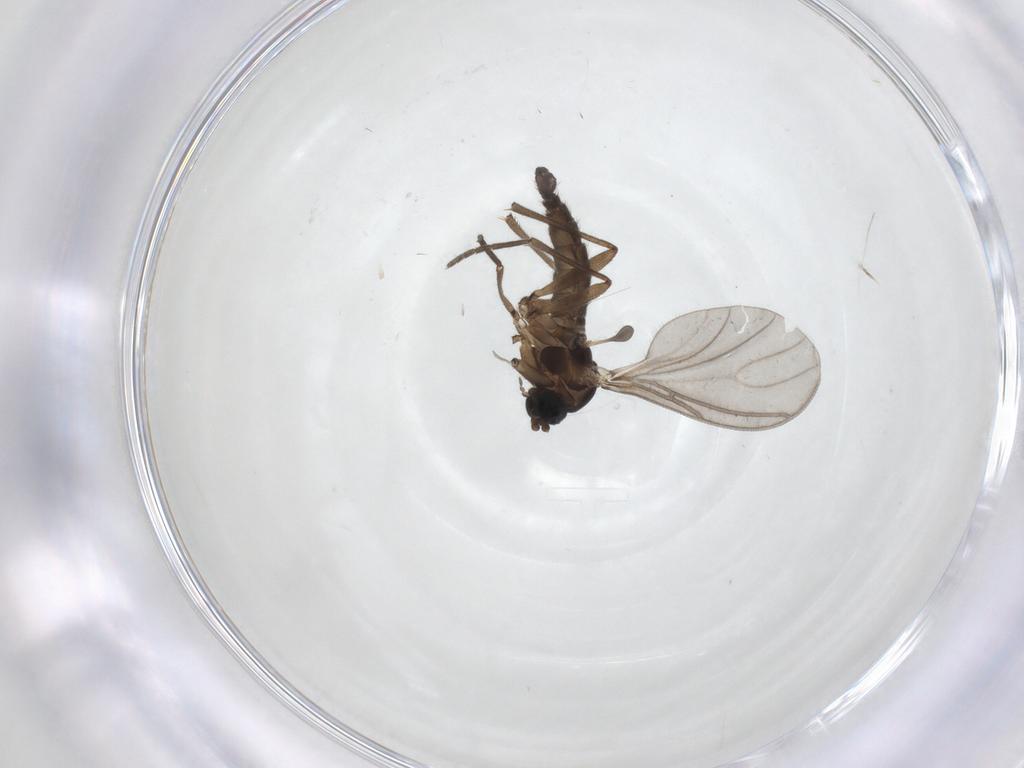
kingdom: Animalia
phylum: Arthropoda
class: Insecta
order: Diptera
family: Sciaridae
